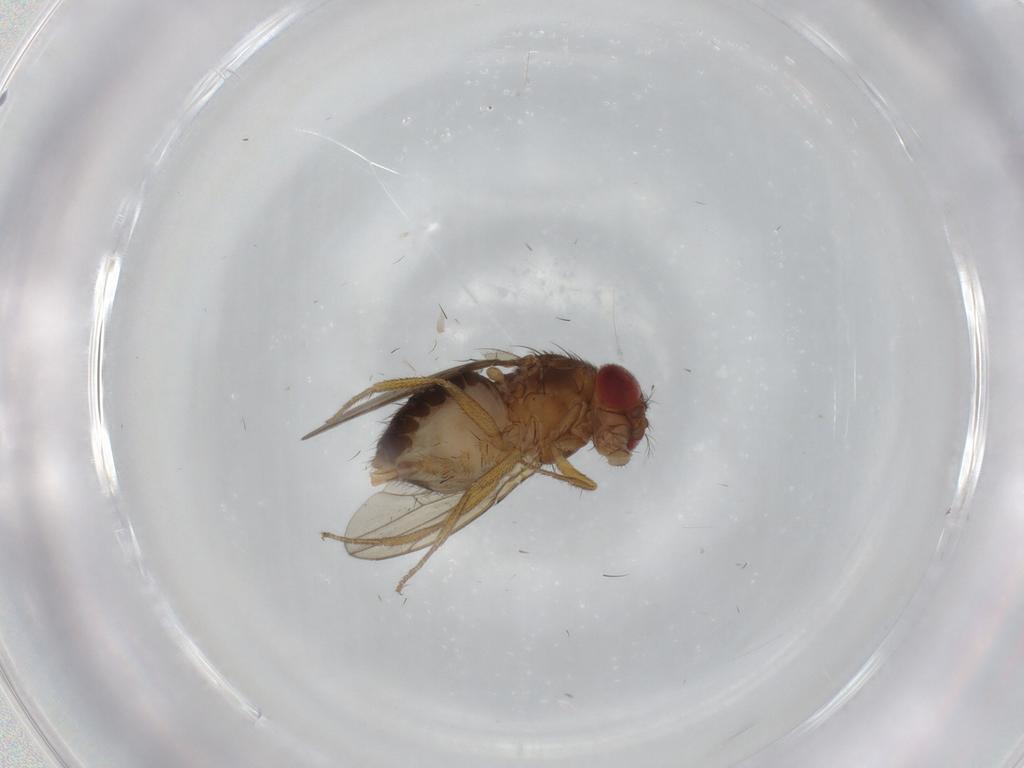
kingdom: Animalia
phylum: Arthropoda
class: Insecta
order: Diptera
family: Drosophilidae
